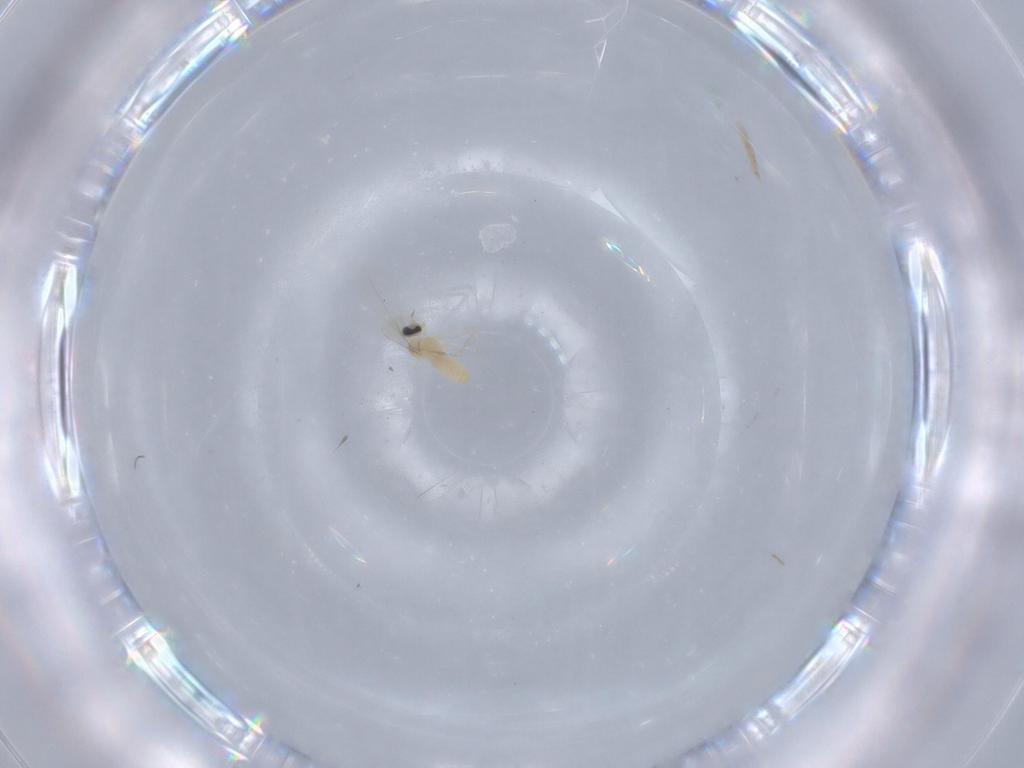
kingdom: Animalia
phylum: Arthropoda
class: Insecta
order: Diptera
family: Cecidomyiidae
